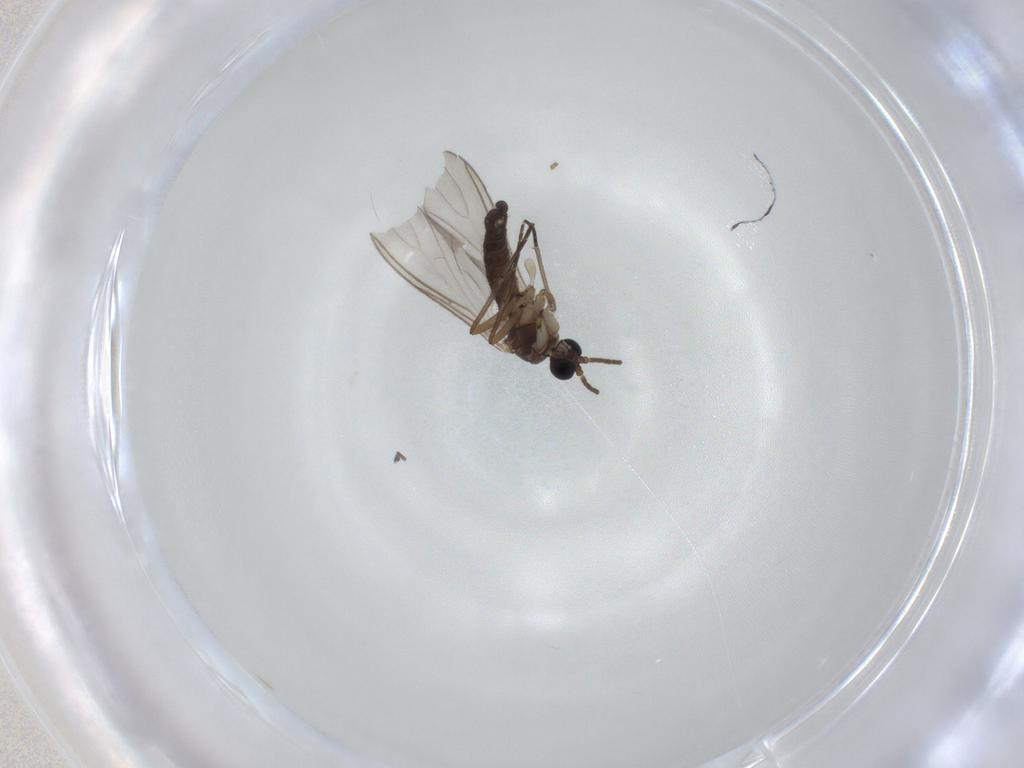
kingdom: Animalia
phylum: Arthropoda
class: Insecta
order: Diptera
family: Sciaridae
